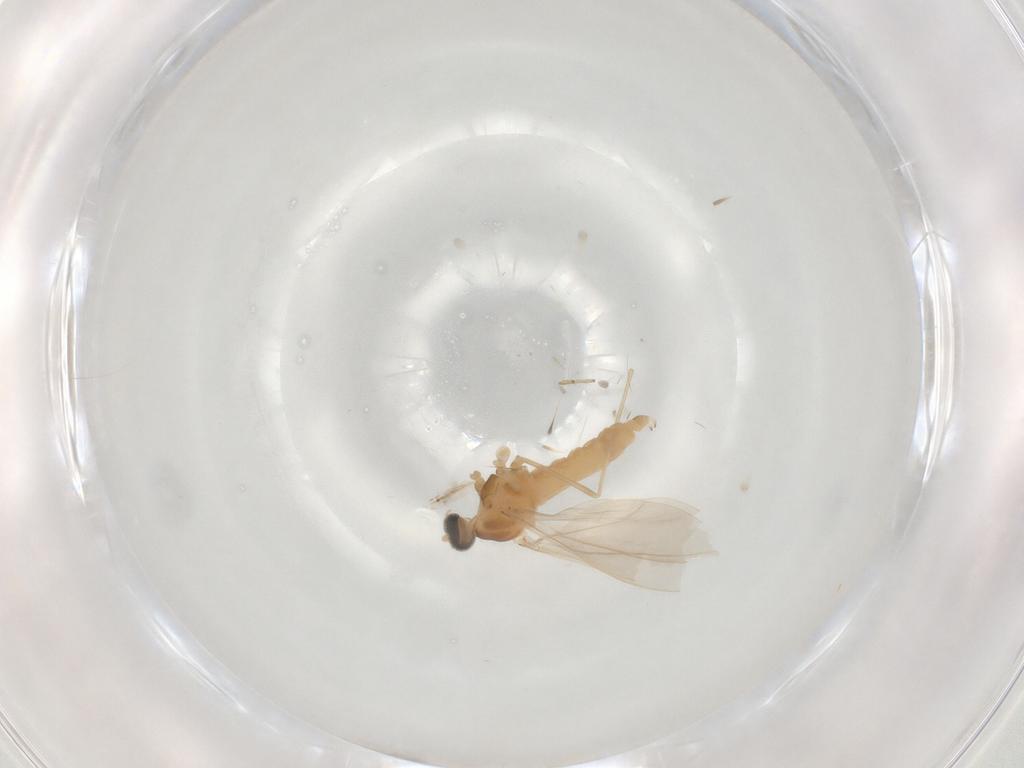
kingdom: Animalia
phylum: Arthropoda
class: Insecta
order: Diptera
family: Cecidomyiidae
